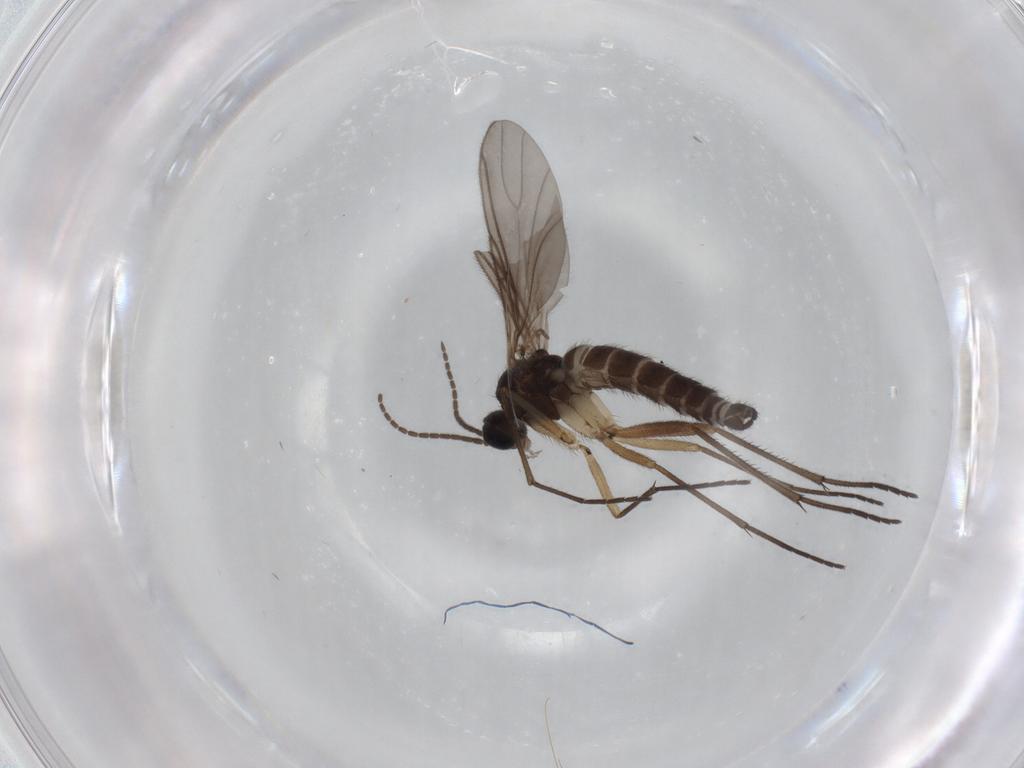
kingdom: Animalia
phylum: Arthropoda
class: Insecta
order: Diptera
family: Sciaridae
